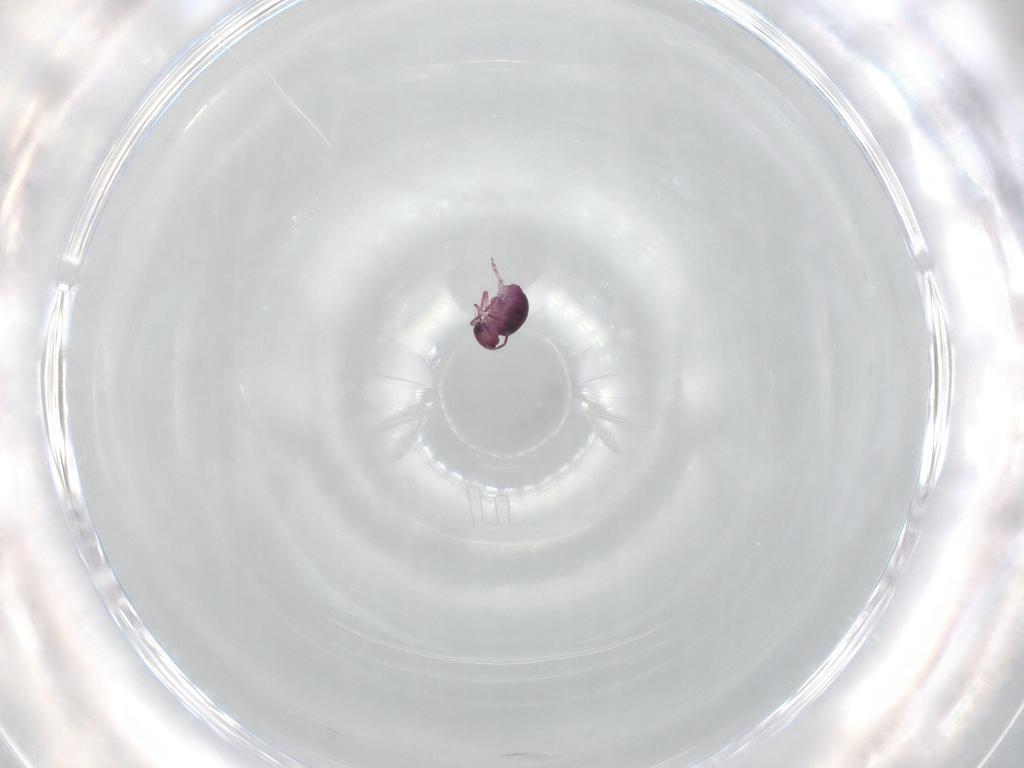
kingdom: Animalia
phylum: Arthropoda
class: Collembola
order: Symphypleona
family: Sminthurididae
